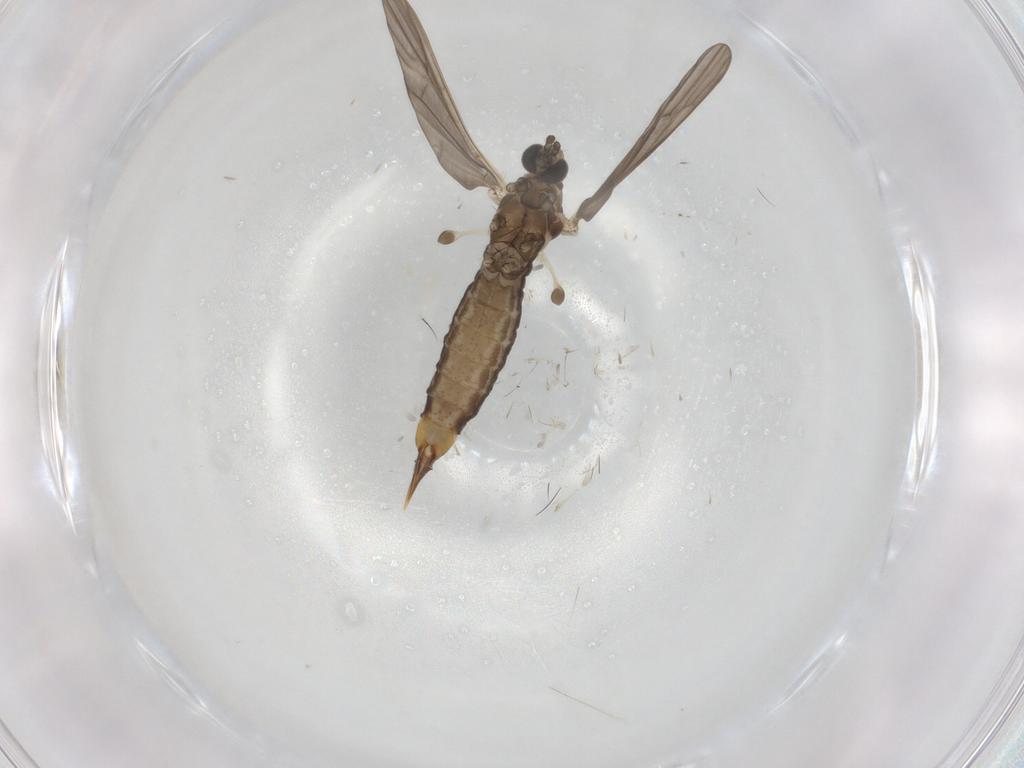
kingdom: Animalia
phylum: Arthropoda
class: Insecta
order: Diptera
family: Limoniidae
